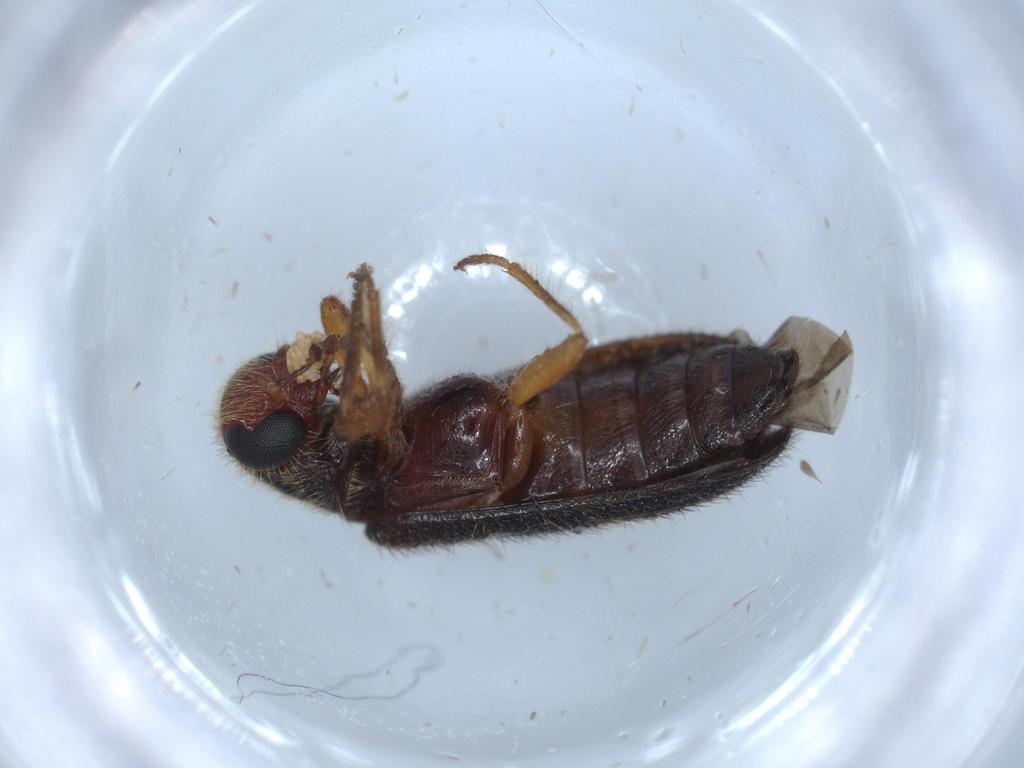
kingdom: Animalia
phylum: Arthropoda
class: Insecta
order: Coleoptera
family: Cleridae
